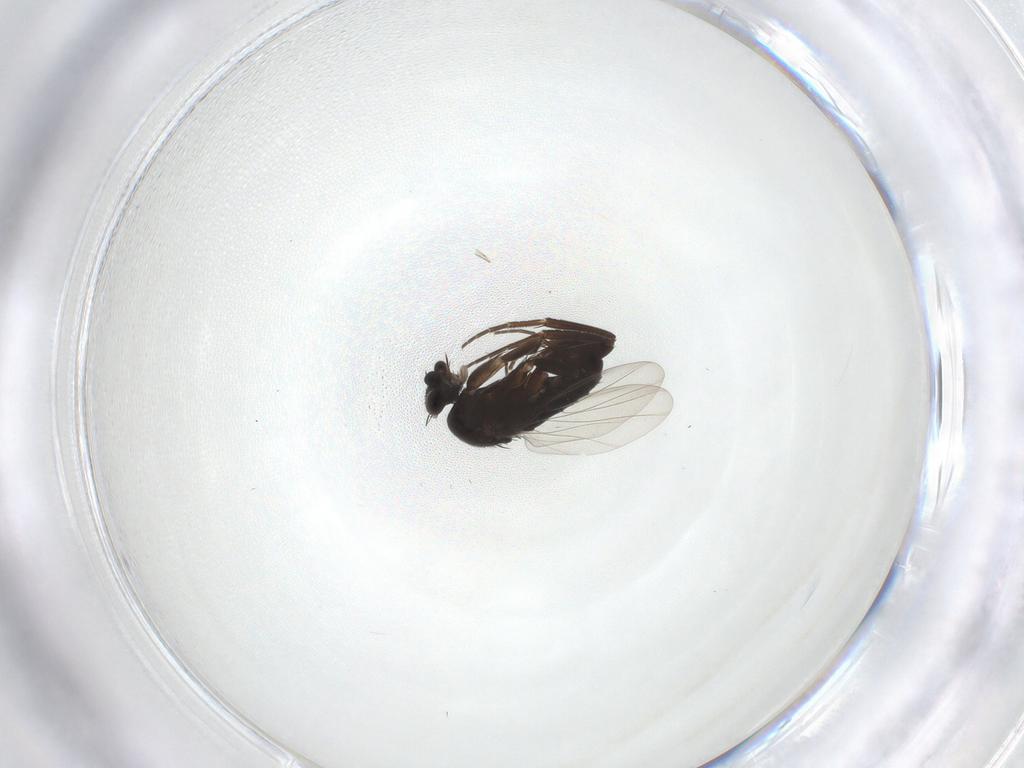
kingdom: Animalia
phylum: Arthropoda
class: Insecta
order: Diptera
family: Phoridae
